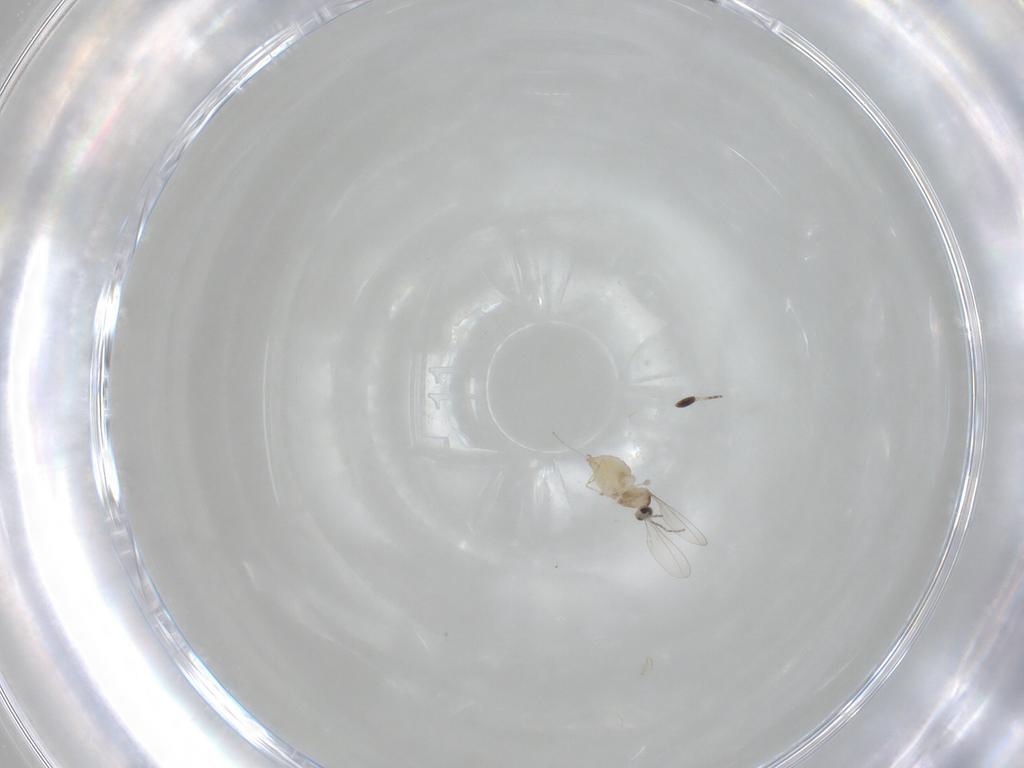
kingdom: Animalia
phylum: Arthropoda
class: Insecta
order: Diptera
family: Cecidomyiidae
